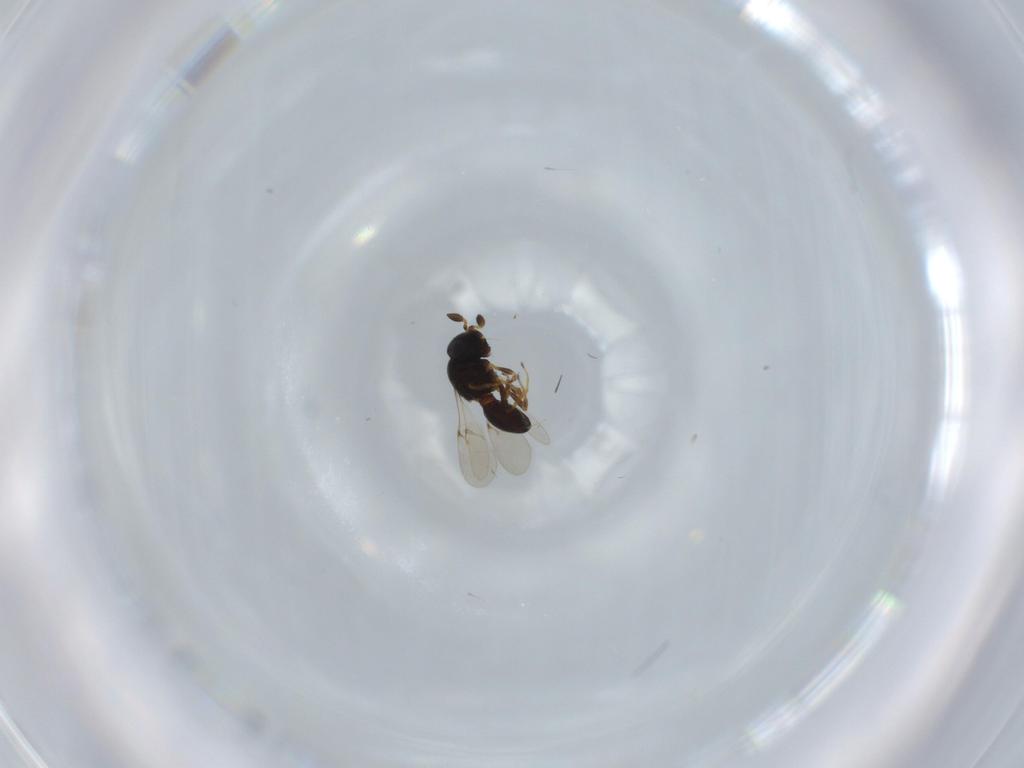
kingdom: Animalia
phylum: Arthropoda
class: Insecta
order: Hymenoptera
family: Scelionidae
